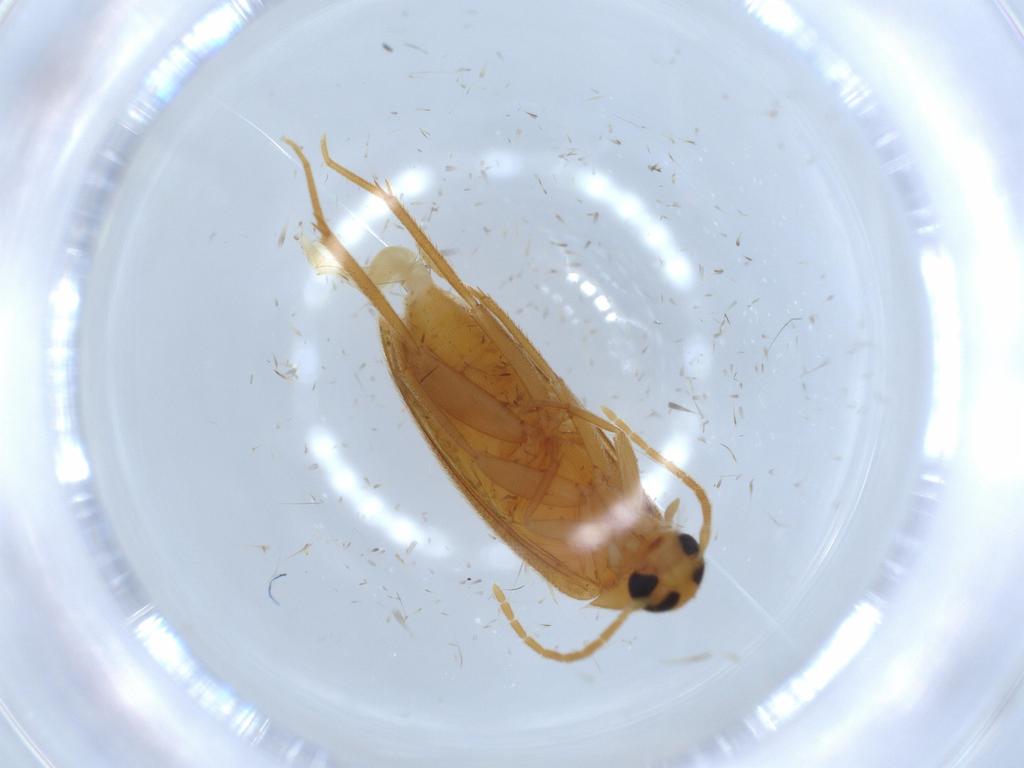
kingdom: Animalia
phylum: Arthropoda
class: Insecta
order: Coleoptera
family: Scraptiidae
